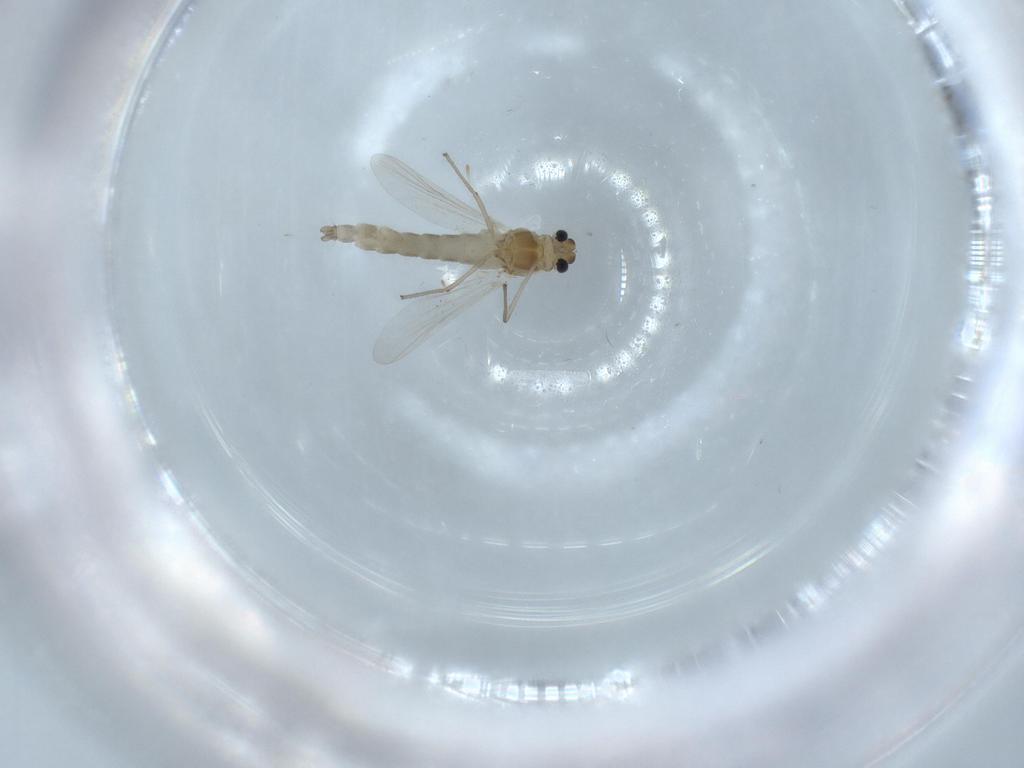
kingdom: Animalia
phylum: Arthropoda
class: Insecta
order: Diptera
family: Chironomidae
